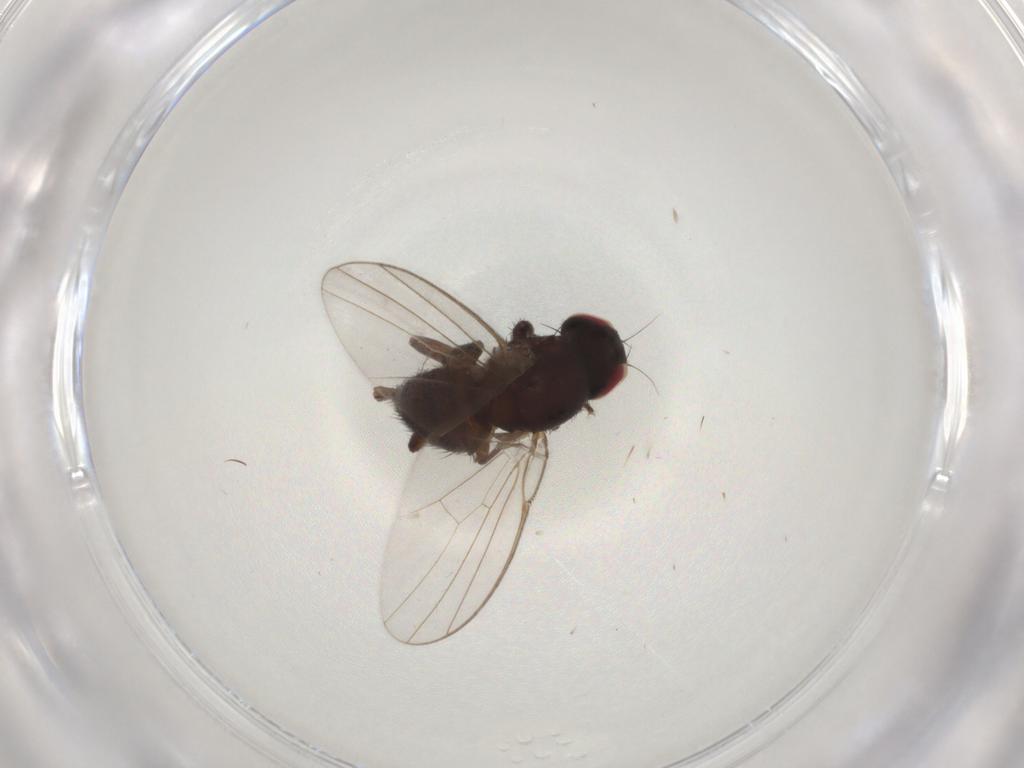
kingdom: Animalia
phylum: Arthropoda
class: Insecta
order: Diptera
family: Agromyzidae
